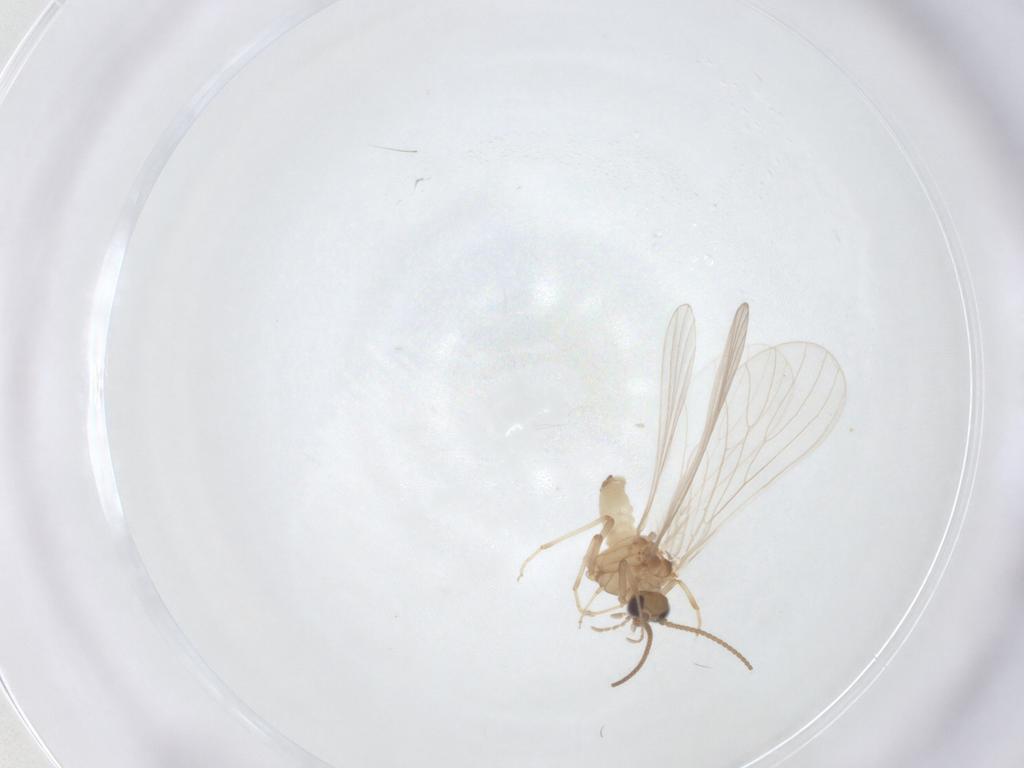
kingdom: Animalia
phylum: Arthropoda
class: Insecta
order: Neuroptera
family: Coniopterygidae
